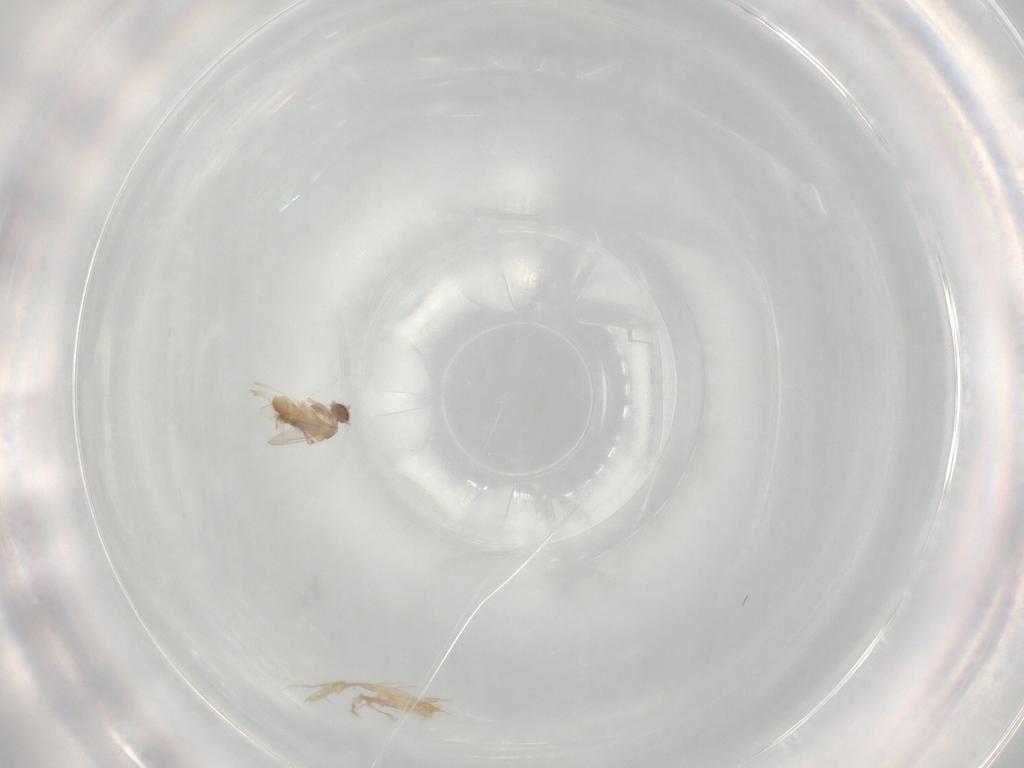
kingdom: Animalia
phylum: Arthropoda
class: Insecta
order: Diptera
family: Cecidomyiidae
